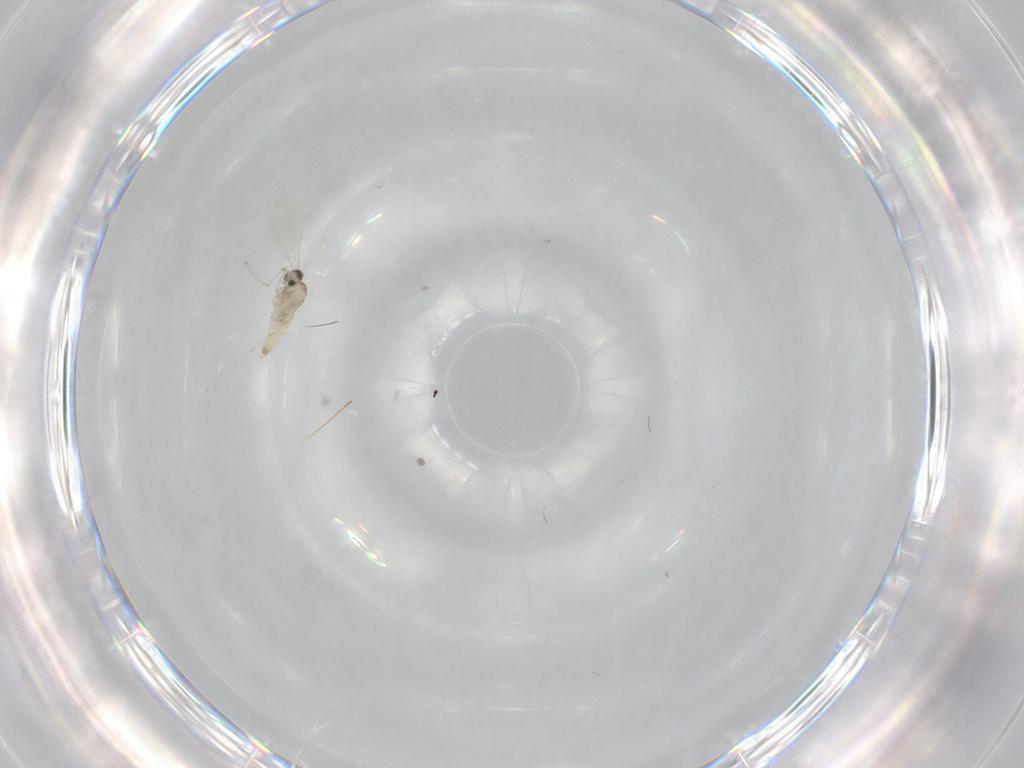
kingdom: Animalia
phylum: Arthropoda
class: Insecta
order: Diptera
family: Cecidomyiidae
